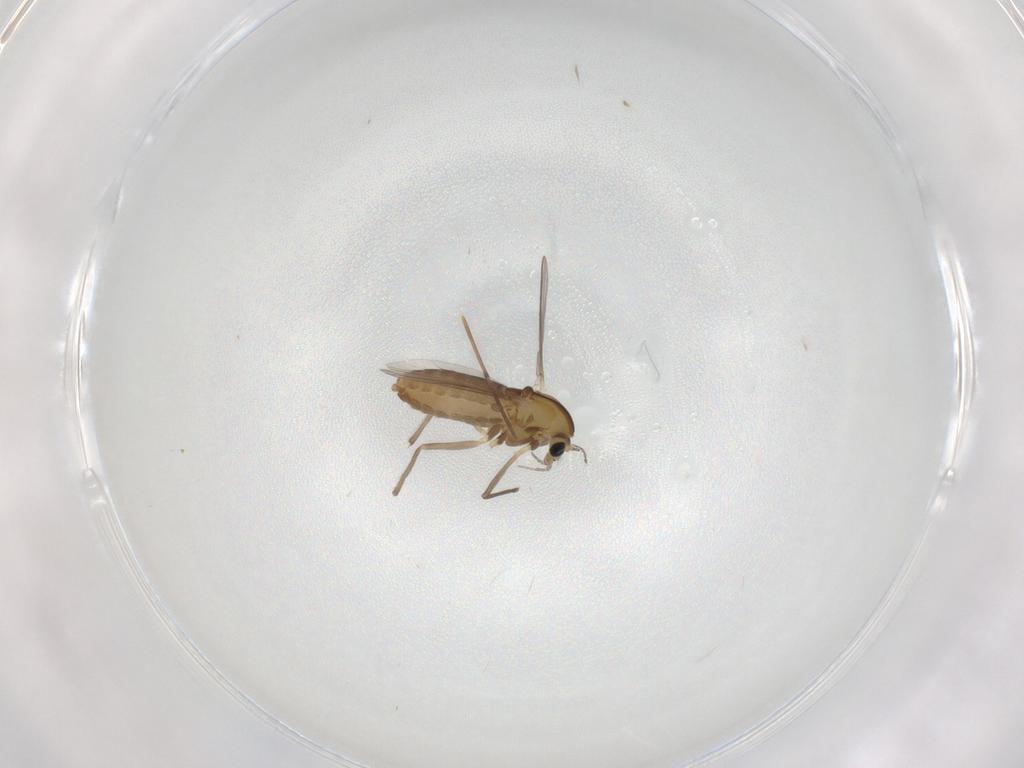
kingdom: Animalia
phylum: Arthropoda
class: Insecta
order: Diptera
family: Chironomidae
